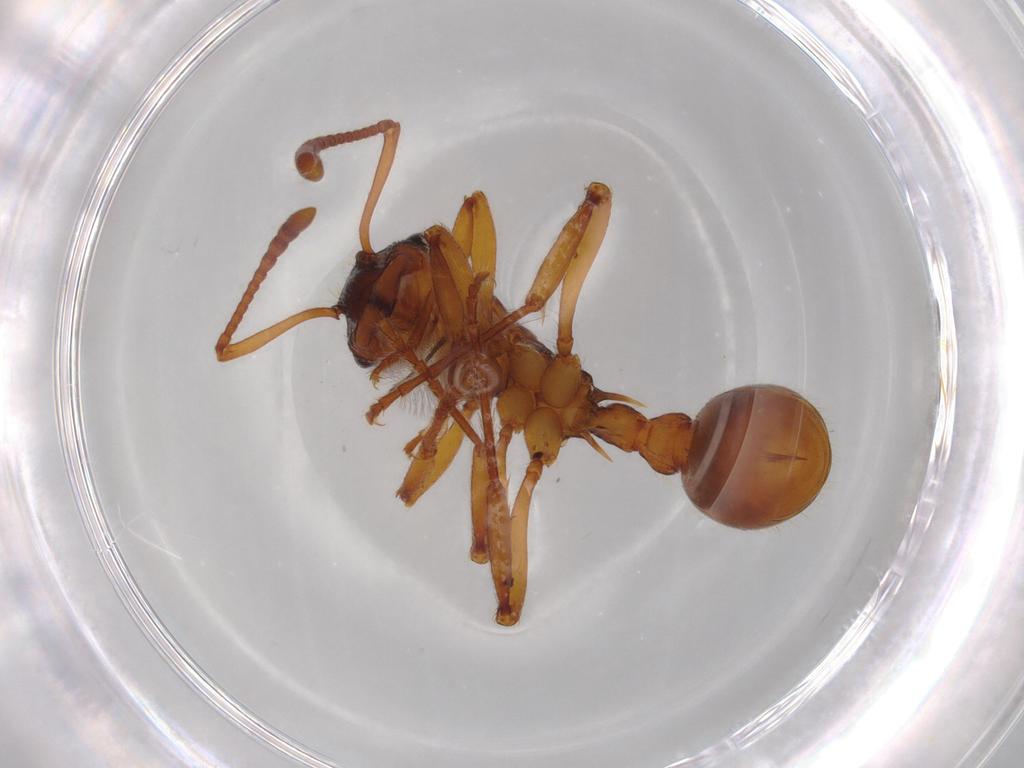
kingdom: Animalia
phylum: Arthropoda
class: Insecta
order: Hymenoptera
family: Formicidae
